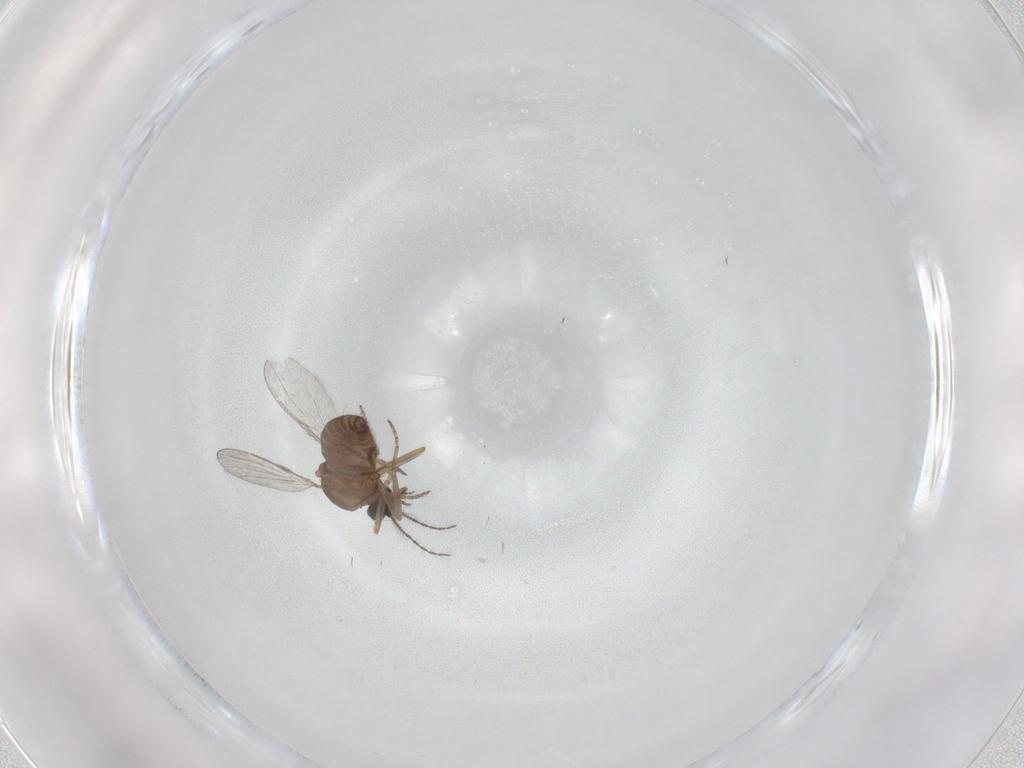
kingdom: Animalia
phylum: Arthropoda
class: Insecta
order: Diptera
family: Ceratopogonidae
